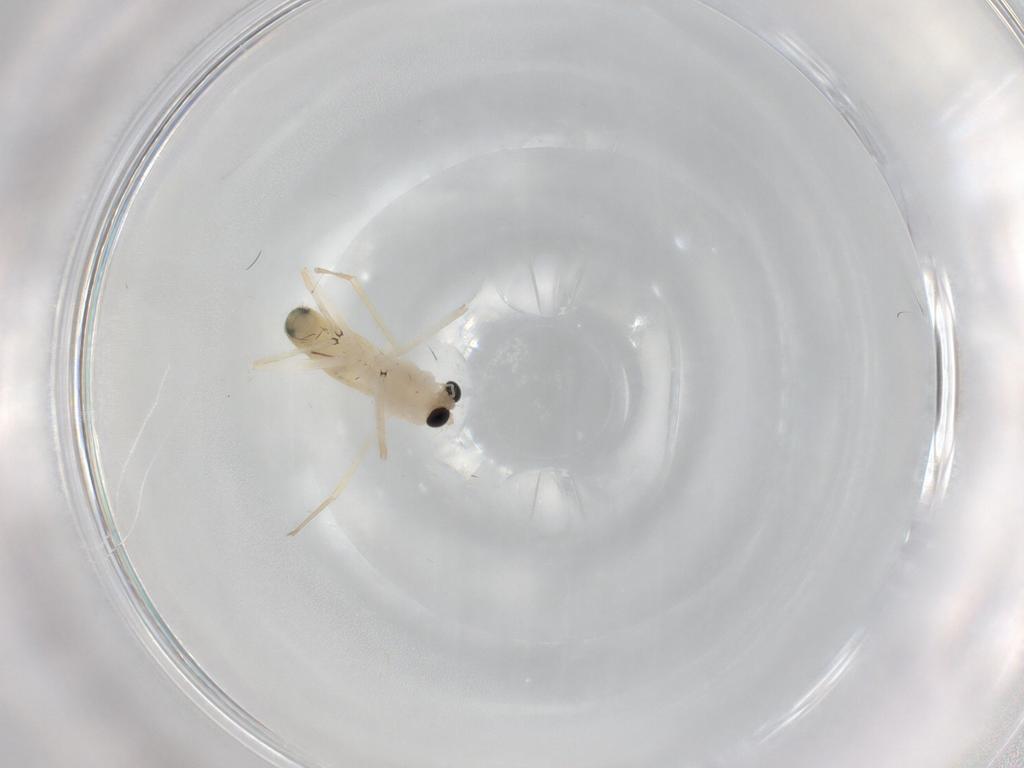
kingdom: Animalia
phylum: Arthropoda
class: Insecta
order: Diptera
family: Chironomidae
